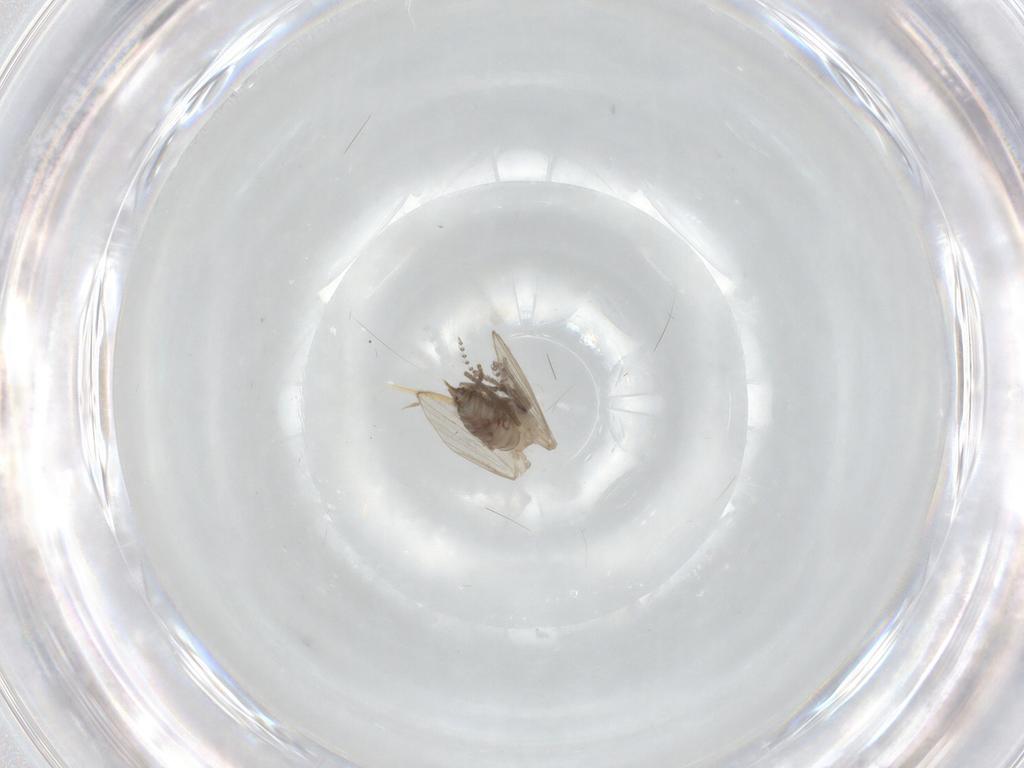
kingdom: Animalia
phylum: Arthropoda
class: Insecta
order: Diptera
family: Psychodidae
